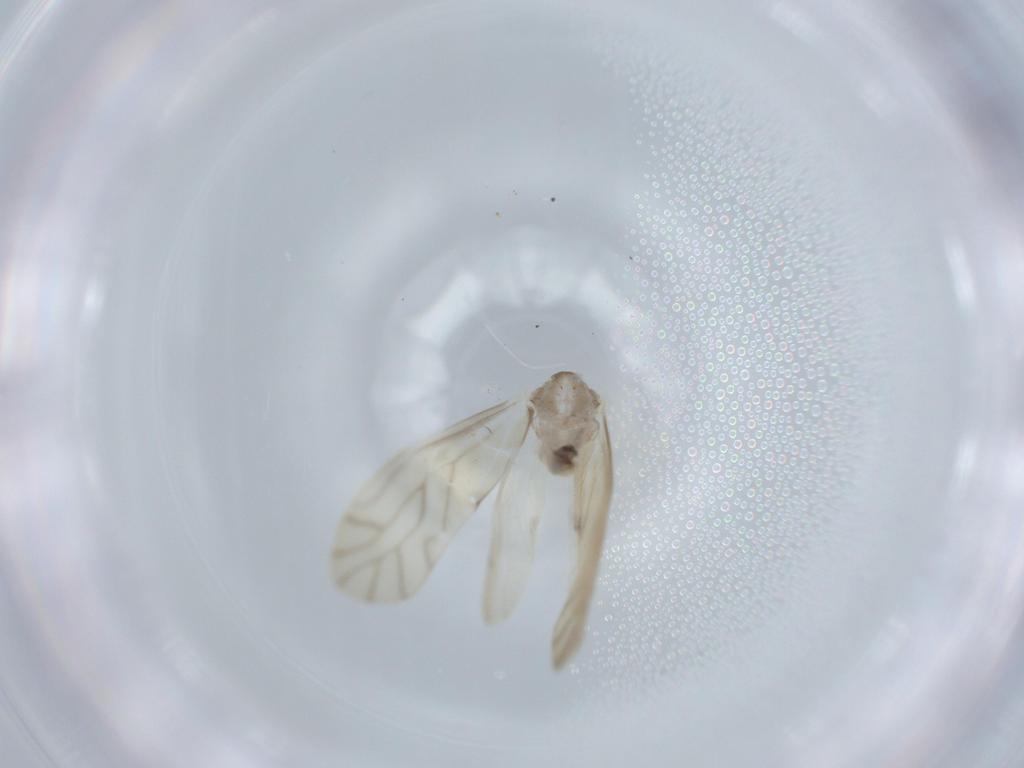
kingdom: Animalia
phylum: Arthropoda
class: Insecta
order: Psocodea
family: Caeciliusidae
